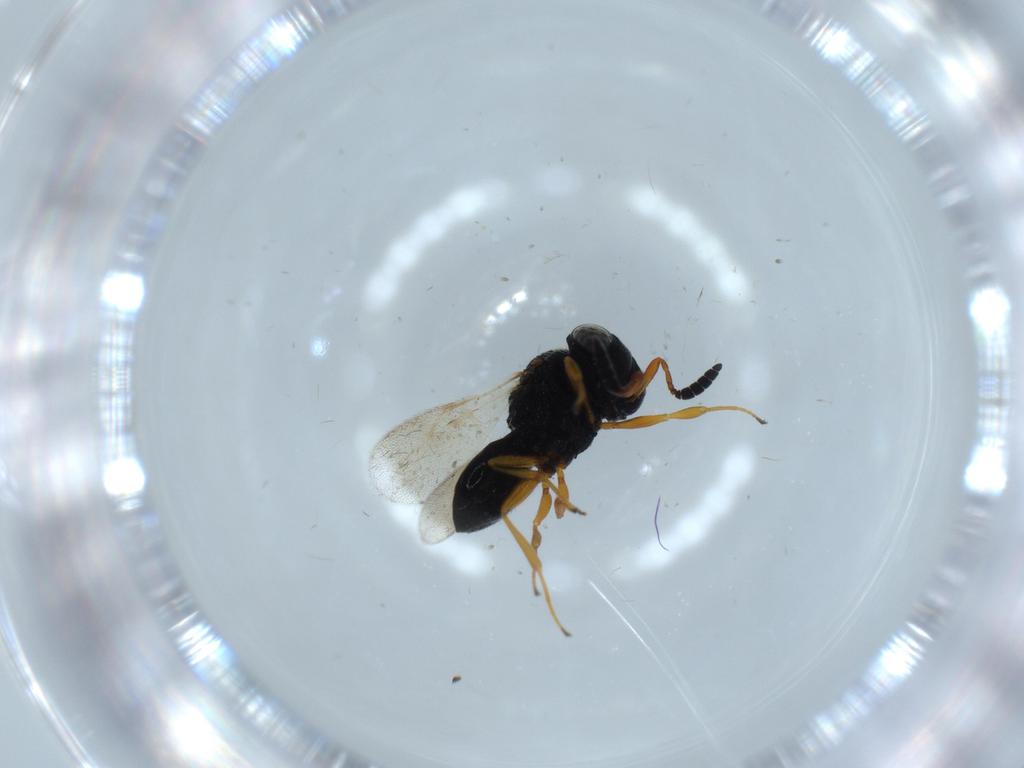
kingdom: Animalia
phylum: Arthropoda
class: Insecta
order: Hymenoptera
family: Scelionidae
